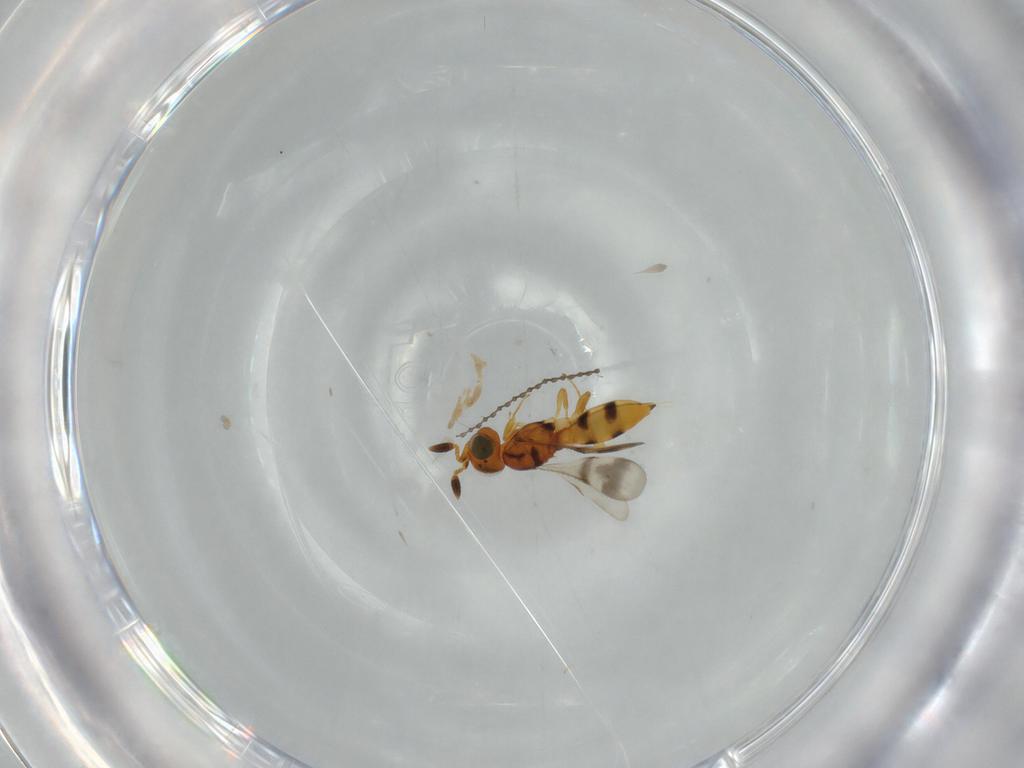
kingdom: Animalia
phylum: Arthropoda
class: Insecta
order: Hymenoptera
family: Scelionidae
